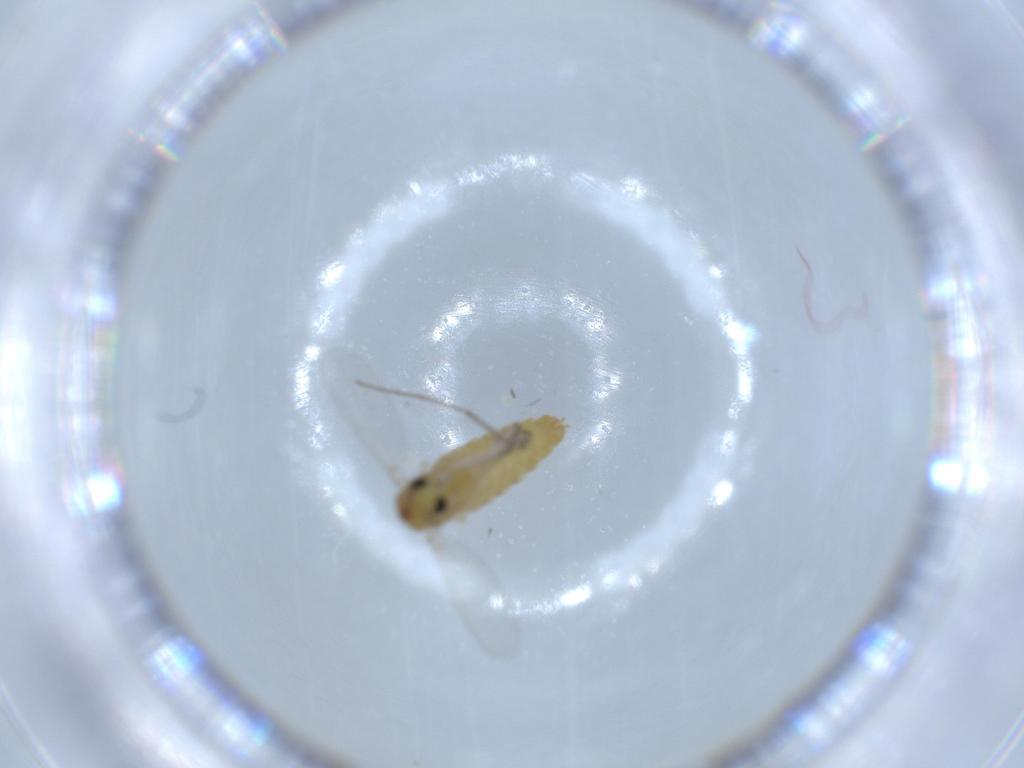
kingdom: Animalia
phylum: Arthropoda
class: Insecta
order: Diptera
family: Chironomidae
